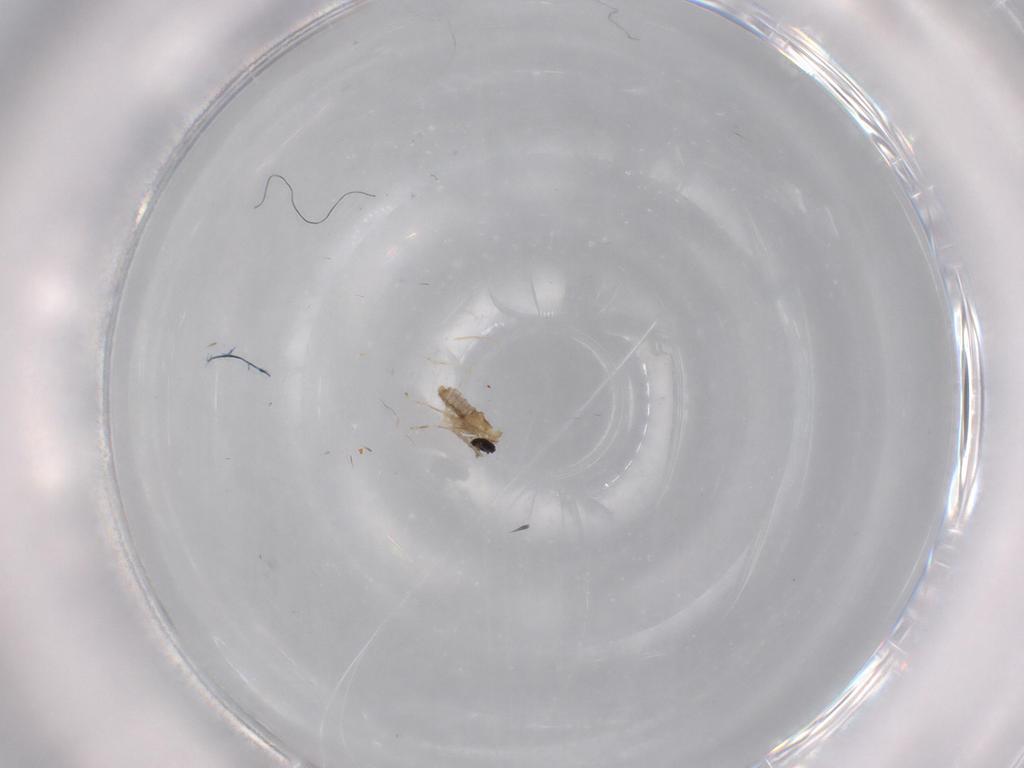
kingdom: Animalia
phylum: Arthropoda
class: Insecta
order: Diptera
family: Cecidomyiidae
